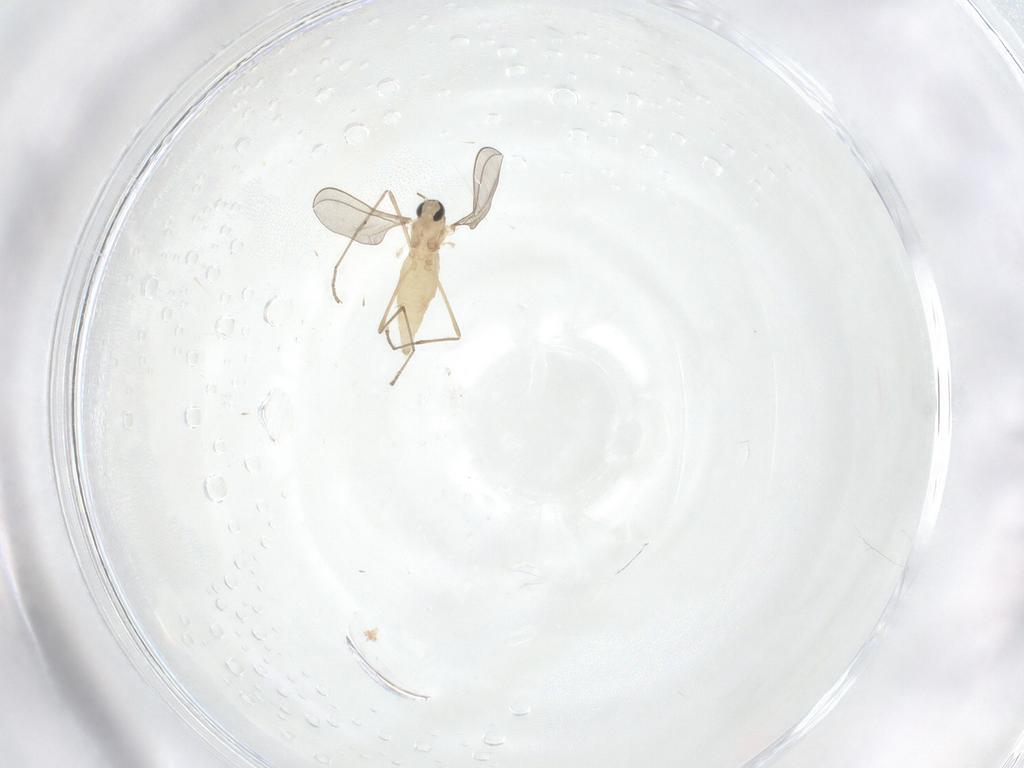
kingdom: Animalia
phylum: Arthropoda
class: Insecta
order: Diptera
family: Cecidomyiidae
